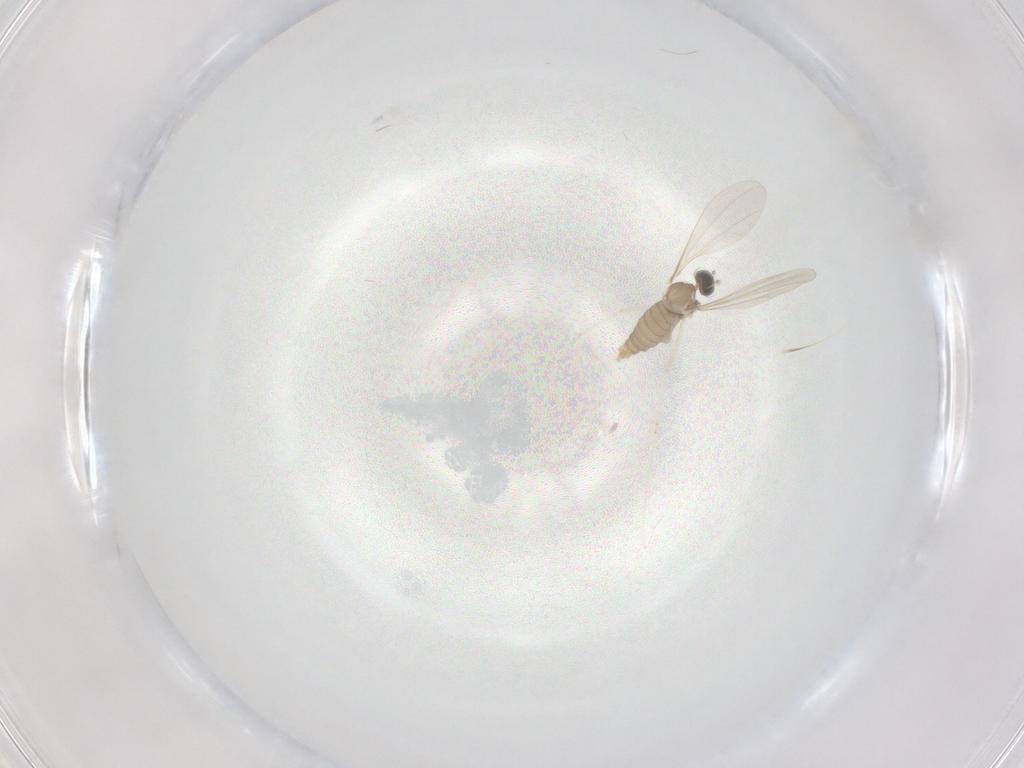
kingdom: Animalia
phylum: Arthropoda
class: Insecta
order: Diptera
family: Cecidomyiidae
